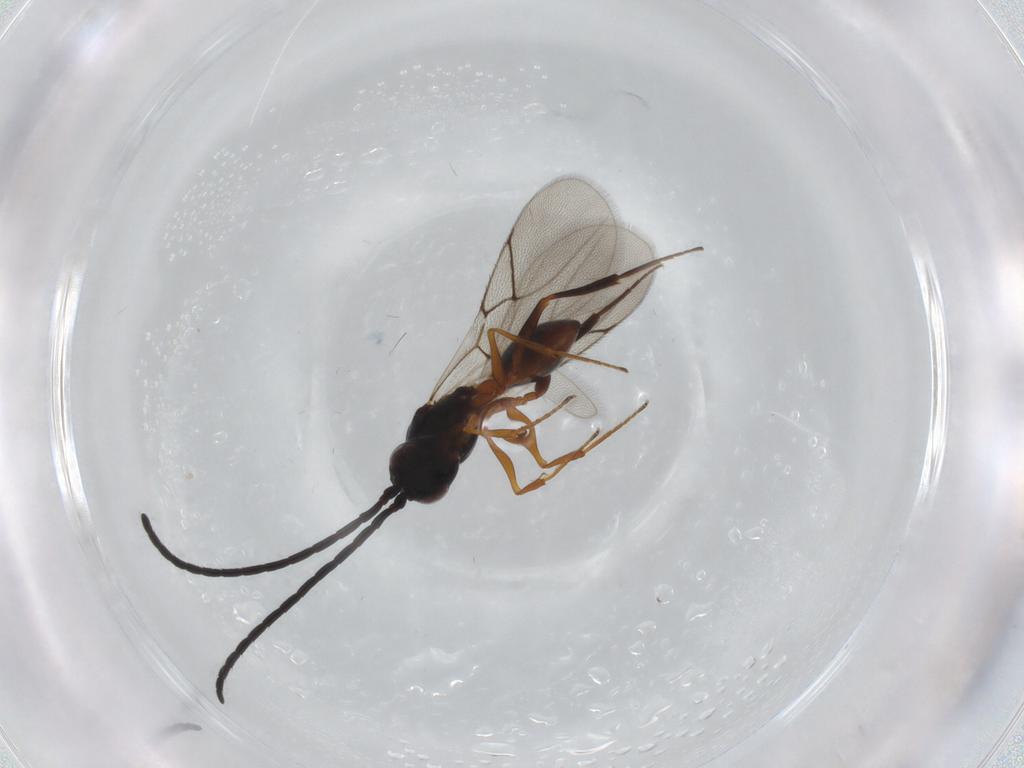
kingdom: Animalia
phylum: Arthropoda
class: Insecta
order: Hymenoptera
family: Figitidae
